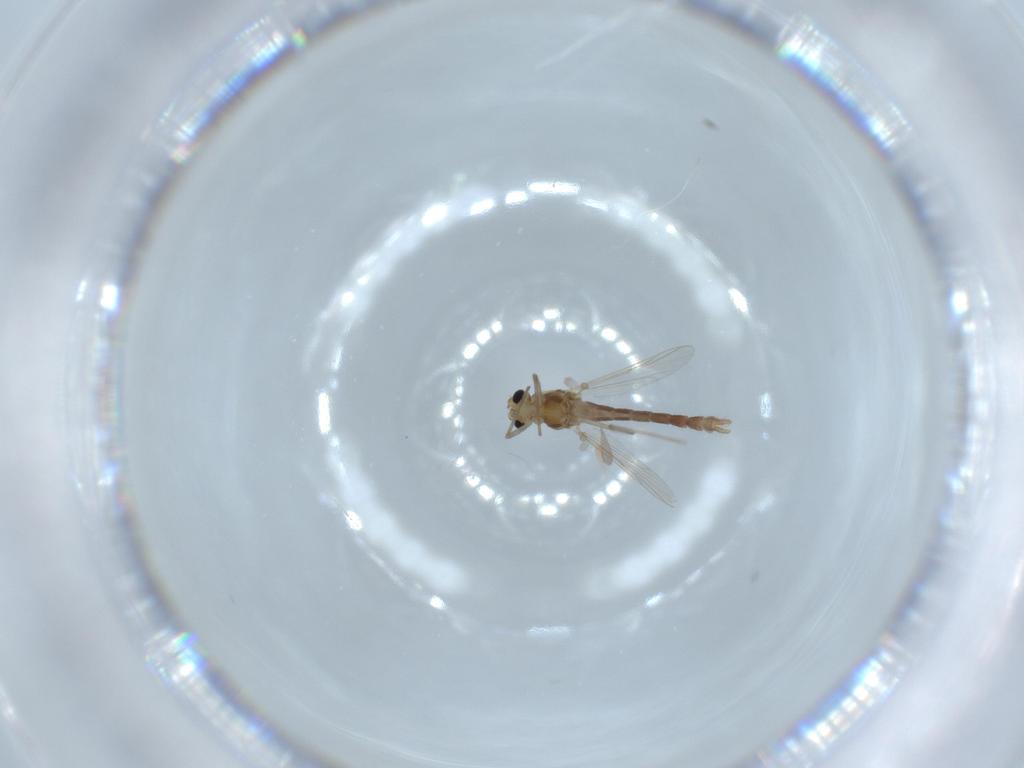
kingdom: Animalia
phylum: Arthropoda
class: Insecta
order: Diptera
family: Chironomidae
